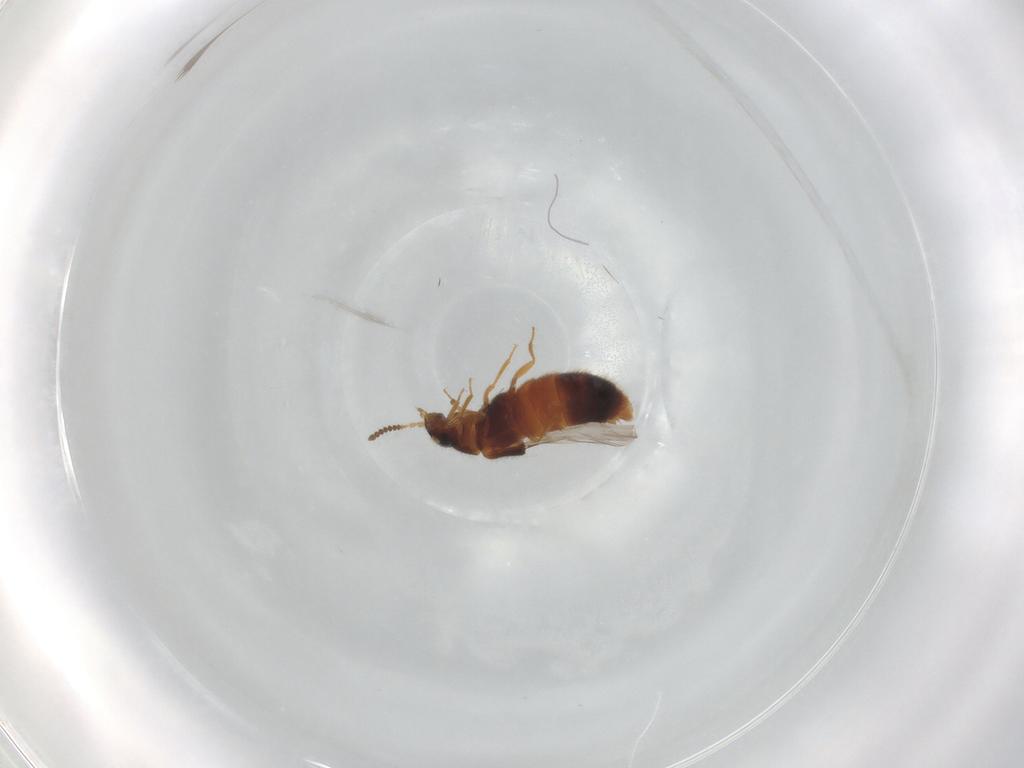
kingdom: Animalia
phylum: Arthropoda
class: Insecta
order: Coleoptera
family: Staphylinidae
